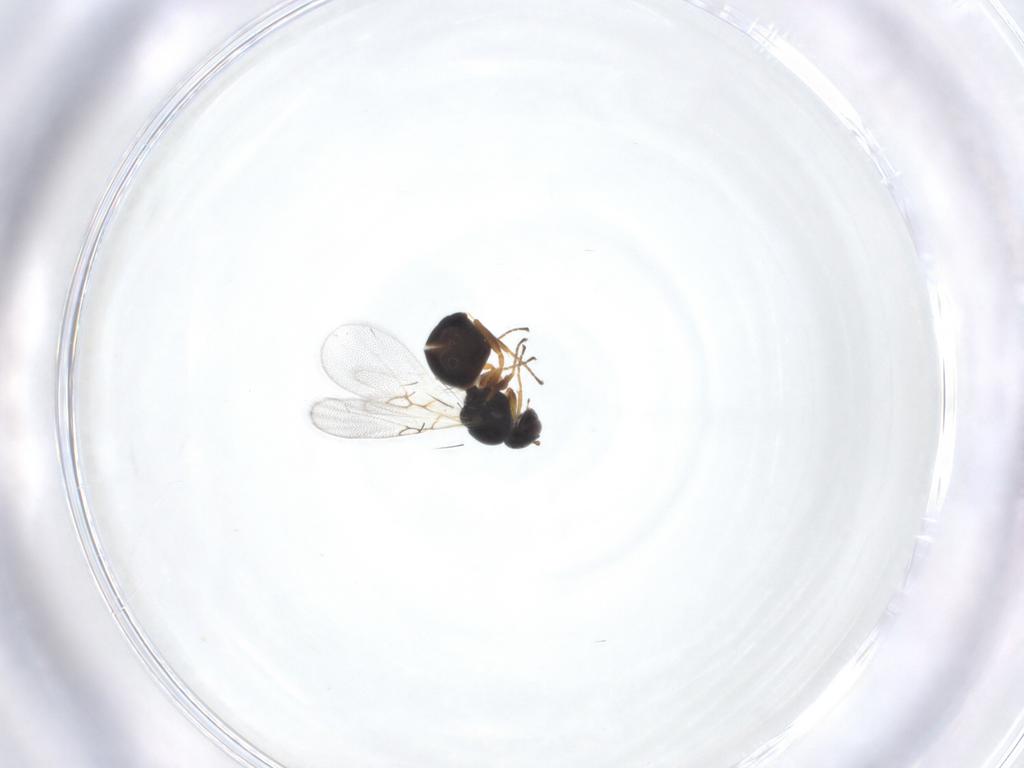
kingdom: Animalia
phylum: Arthropoda
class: Insecta
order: Hymenoptera
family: Figitidae
